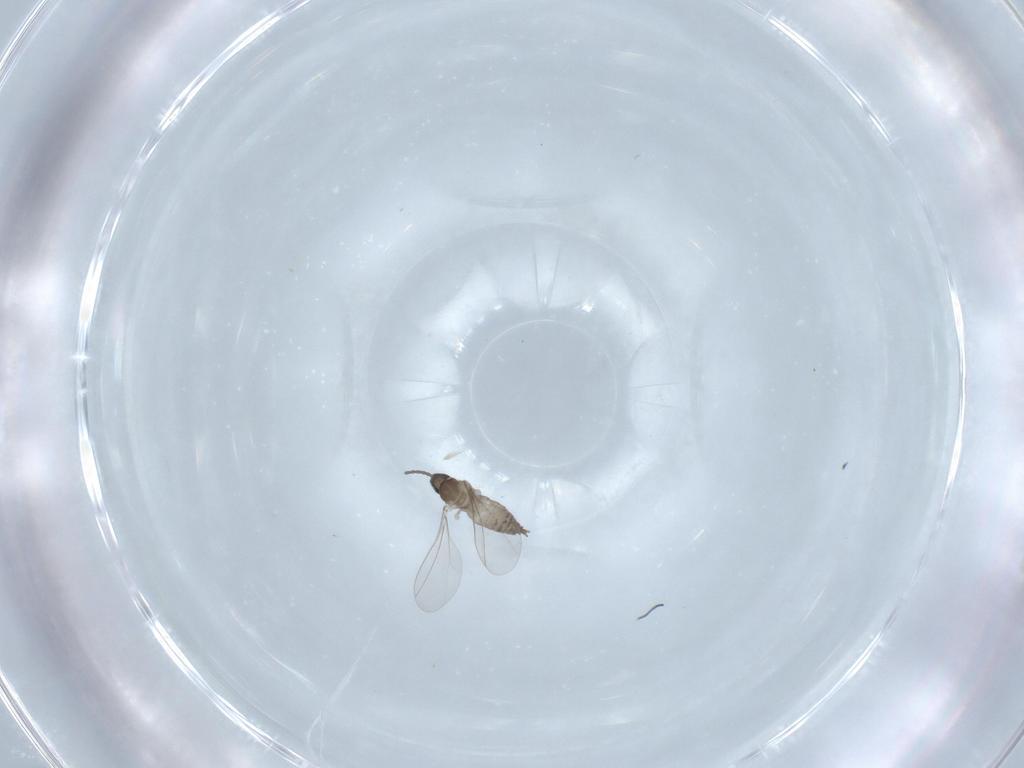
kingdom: Animalia
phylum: Arthropoda
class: Insecta
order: Diptera
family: Cecidomyiidae
